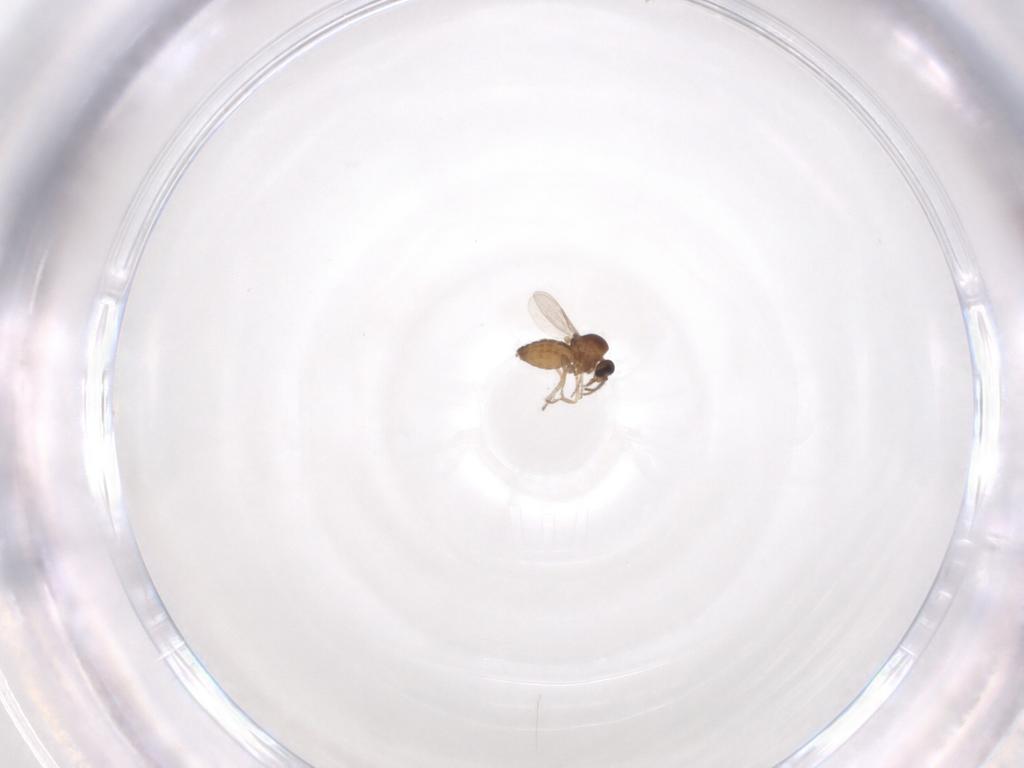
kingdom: Animalia
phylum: Arthropoda
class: Insecta
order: Diptera
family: Ceratopogonidae
